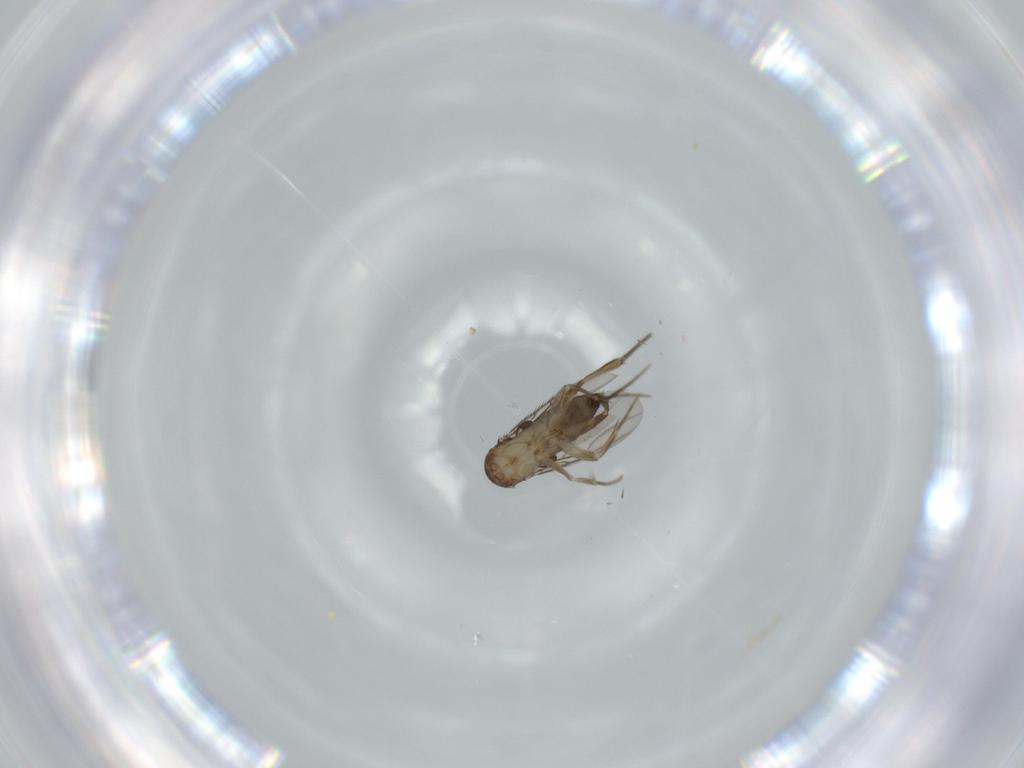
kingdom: Animalia
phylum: Arthropoda
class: Insecta
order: Diptera
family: Phoridae
